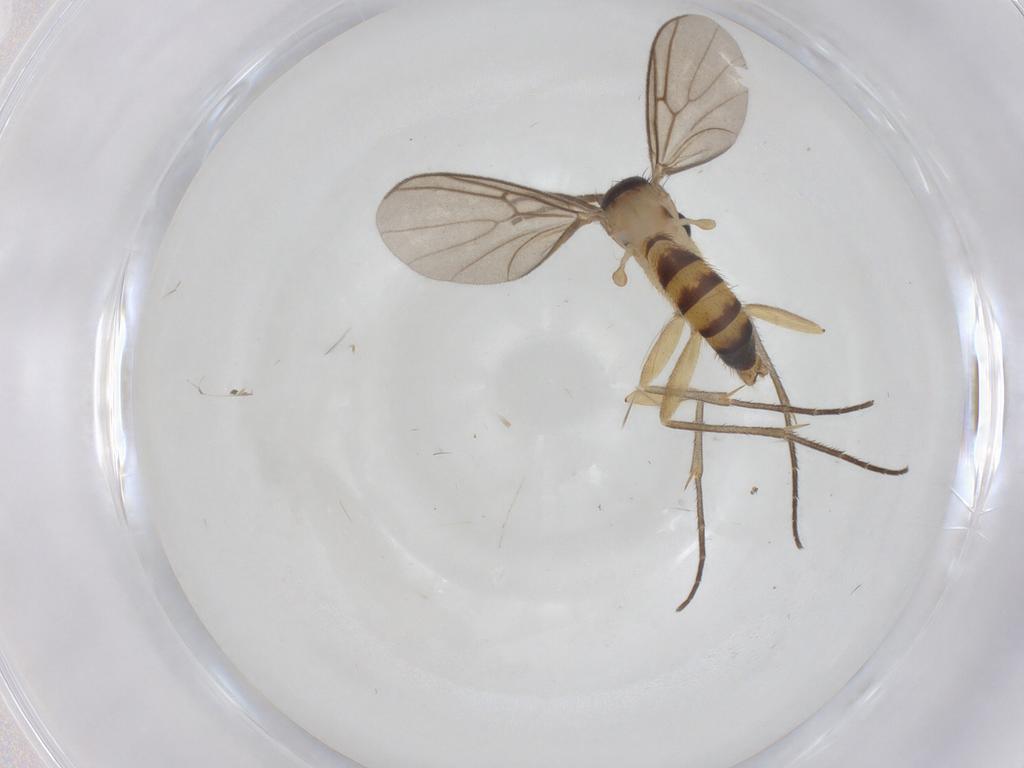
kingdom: Animalia
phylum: Arthropoda
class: Insecta
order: Diptera
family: Mycetophilidae
